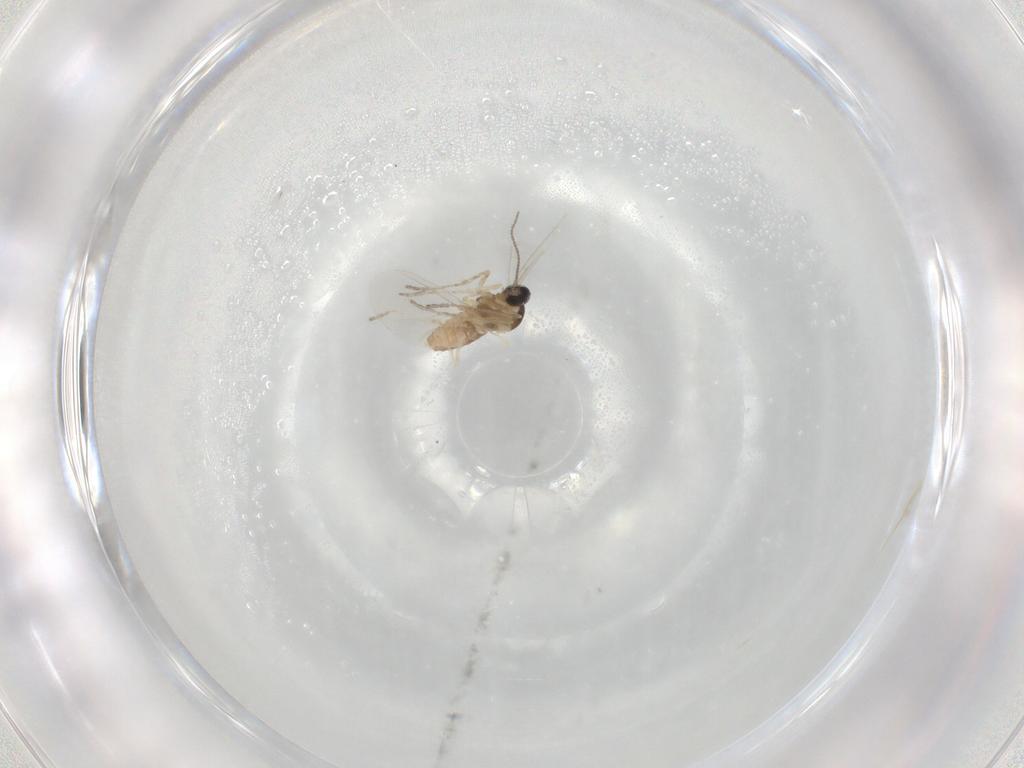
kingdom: Animalia
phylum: Arthropoda
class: Insecta
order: Diptera
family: Cecidomyiidae
